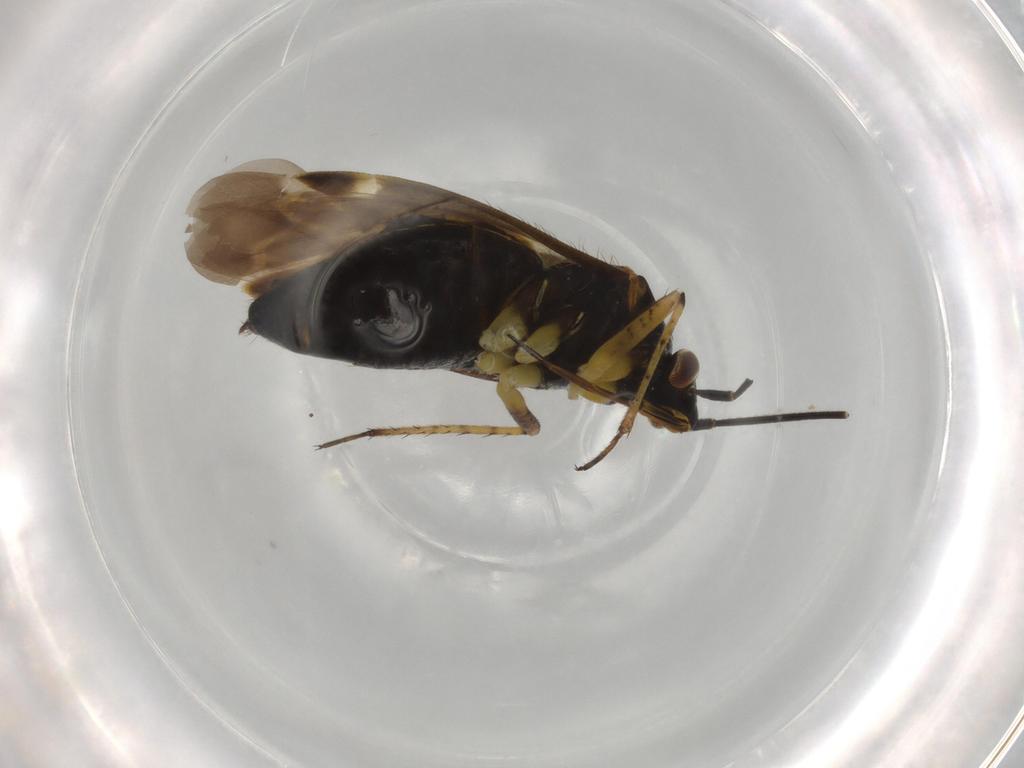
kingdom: Animalia
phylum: Arthropoda
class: Insecta
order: Hemiptera
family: Miridae
